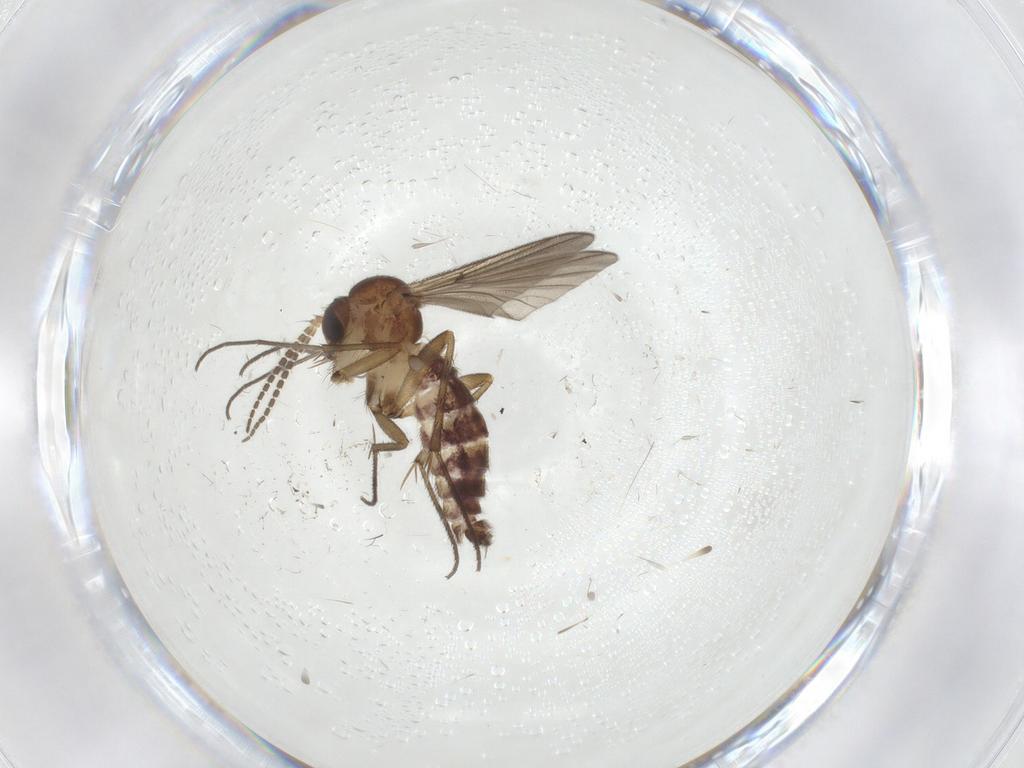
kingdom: Animalia
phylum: Arthropoda
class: Insecta
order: Diptera
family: Mycetophilidae
